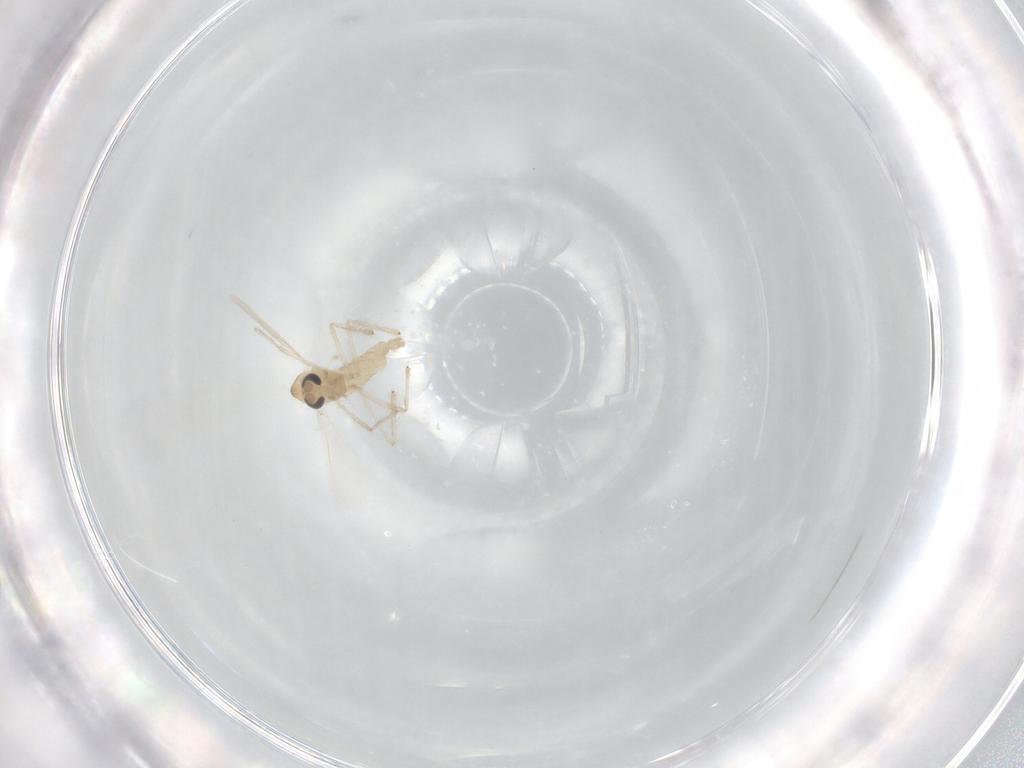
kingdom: Animalia
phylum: Arthropoda
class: Insecta
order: Diptera
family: Chironomidae
